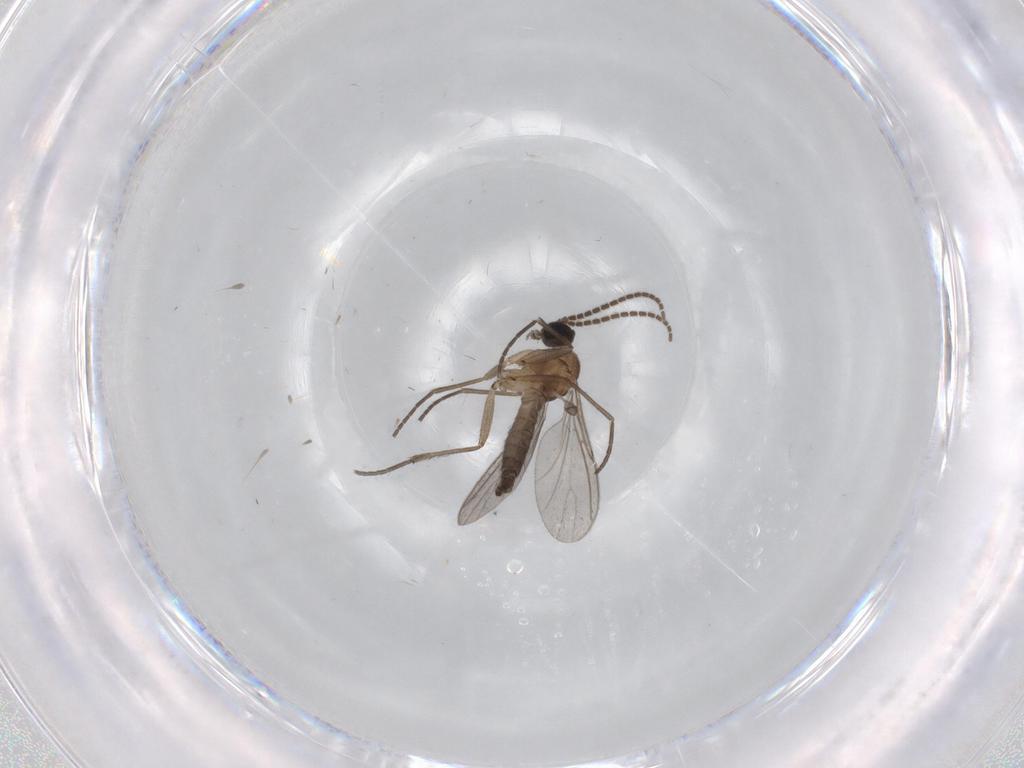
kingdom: Animalia
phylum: Arthropoda
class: Insecta
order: Diptera
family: Sciaridae
